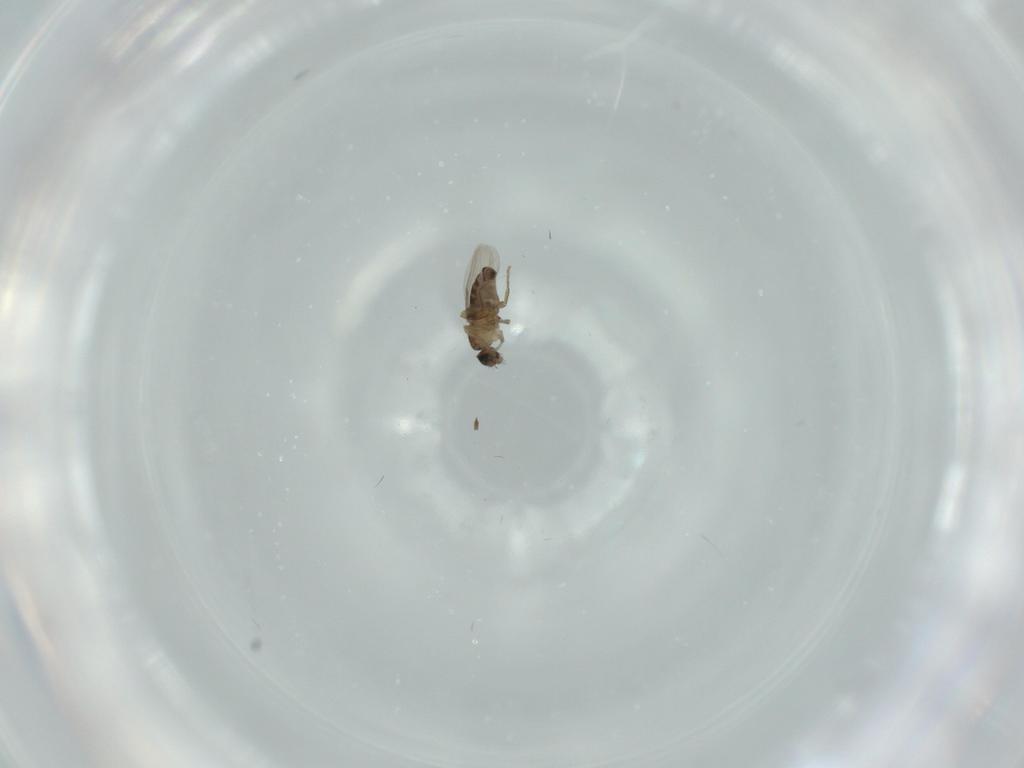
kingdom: Animalia
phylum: Arthropoda
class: Insecta
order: Diptera
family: Phoridae
